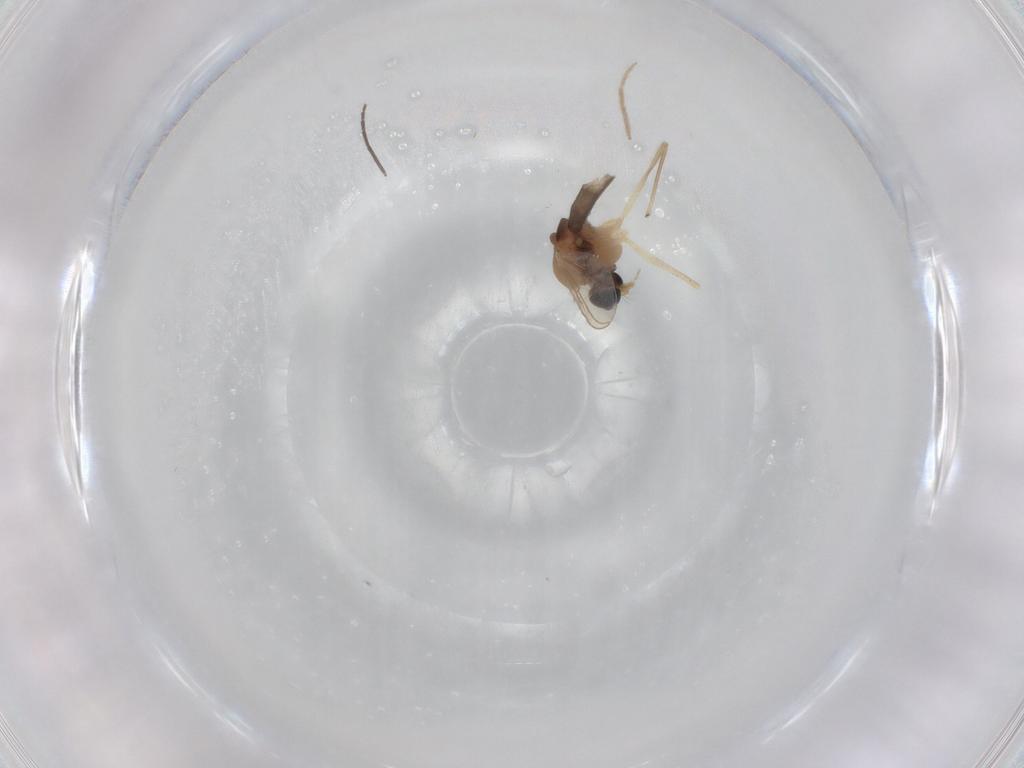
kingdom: Animalia
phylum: Arthropoda
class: Insecta
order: Diptera
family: Chironomidae
